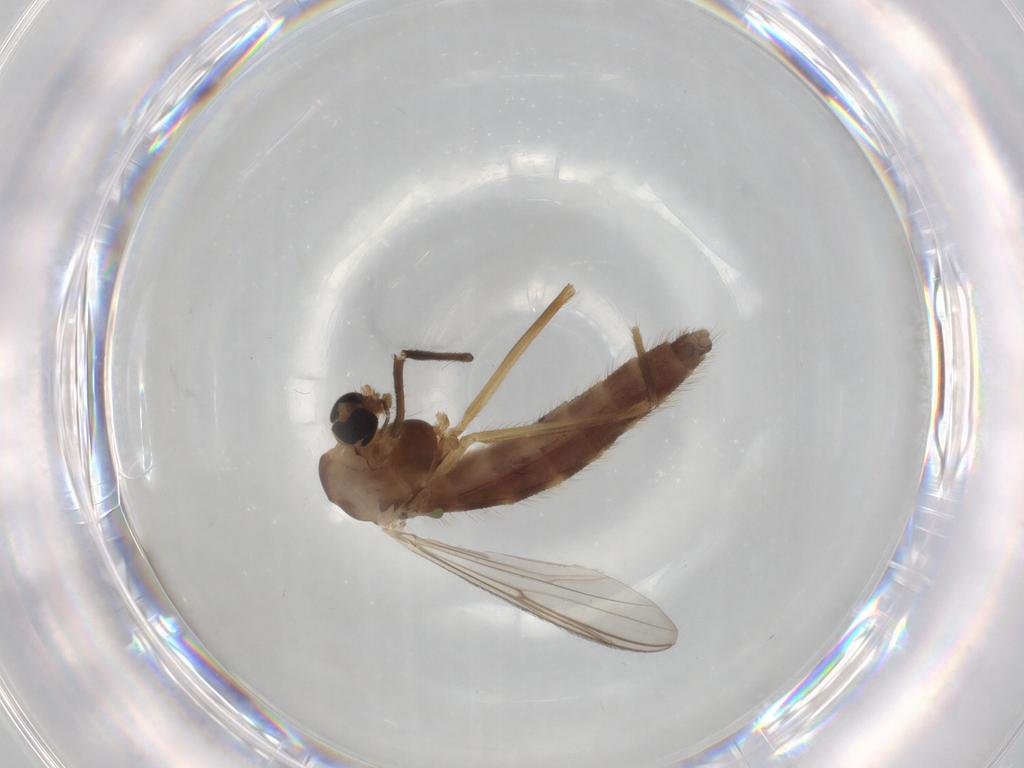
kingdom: Animalia
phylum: Arthropoda
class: Insecta
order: Diptera
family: Chironomidae
